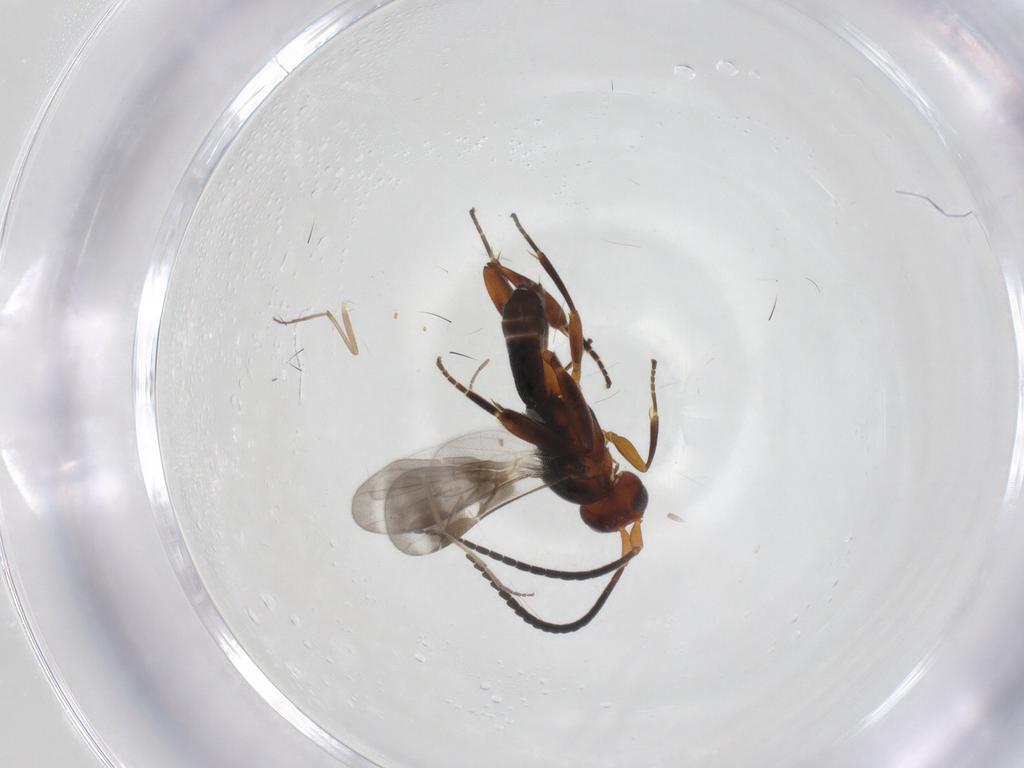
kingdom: Animalia
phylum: Arthropoda
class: Insecta
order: Hymenoptera
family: Braconidae
